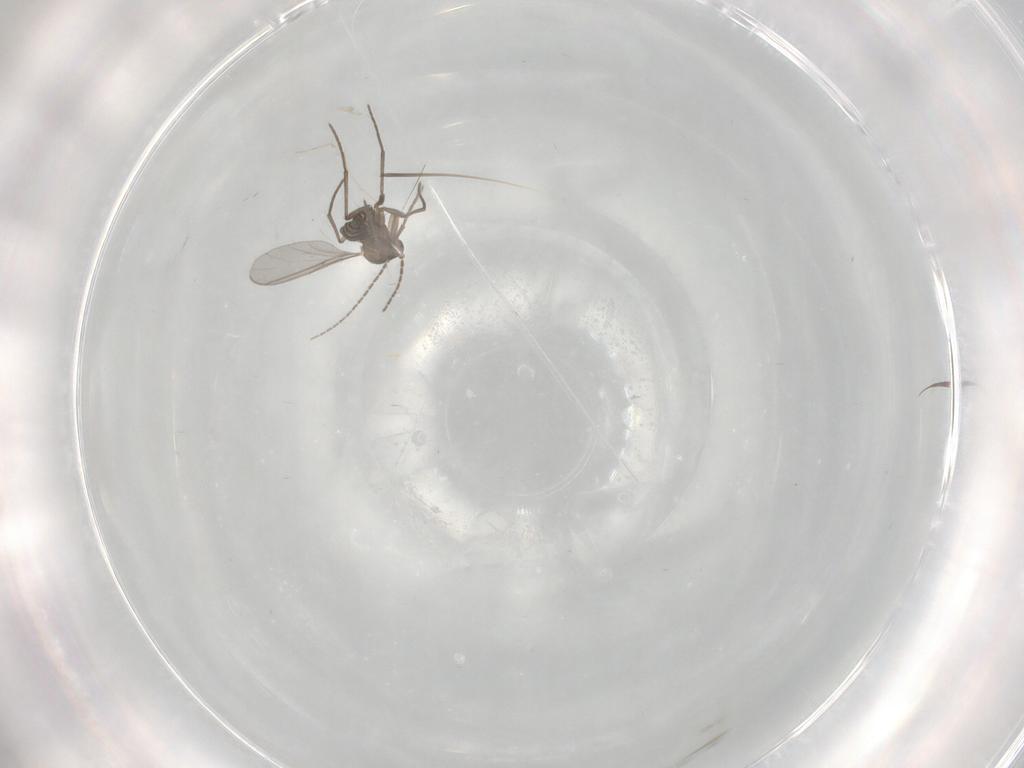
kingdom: Animalia
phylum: Arthropoda
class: Insecta
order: Diptera
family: Sciaridae
